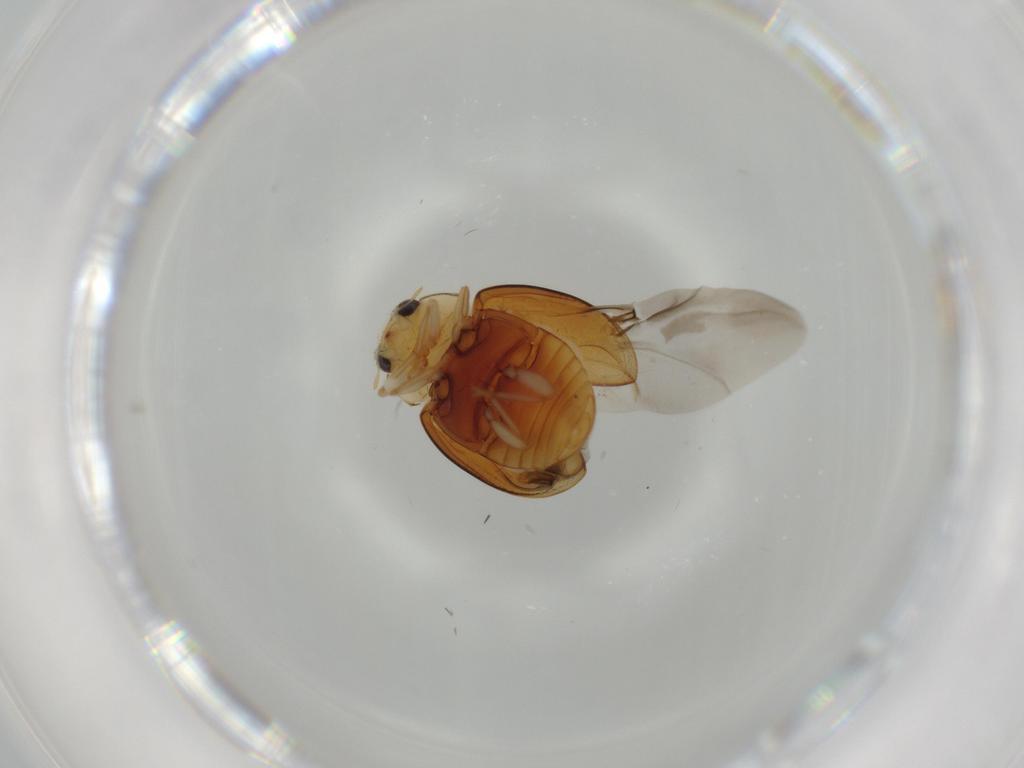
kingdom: Animalia
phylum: Arthropoda
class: Insecta
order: Coleoptera
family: Coccinellidae
